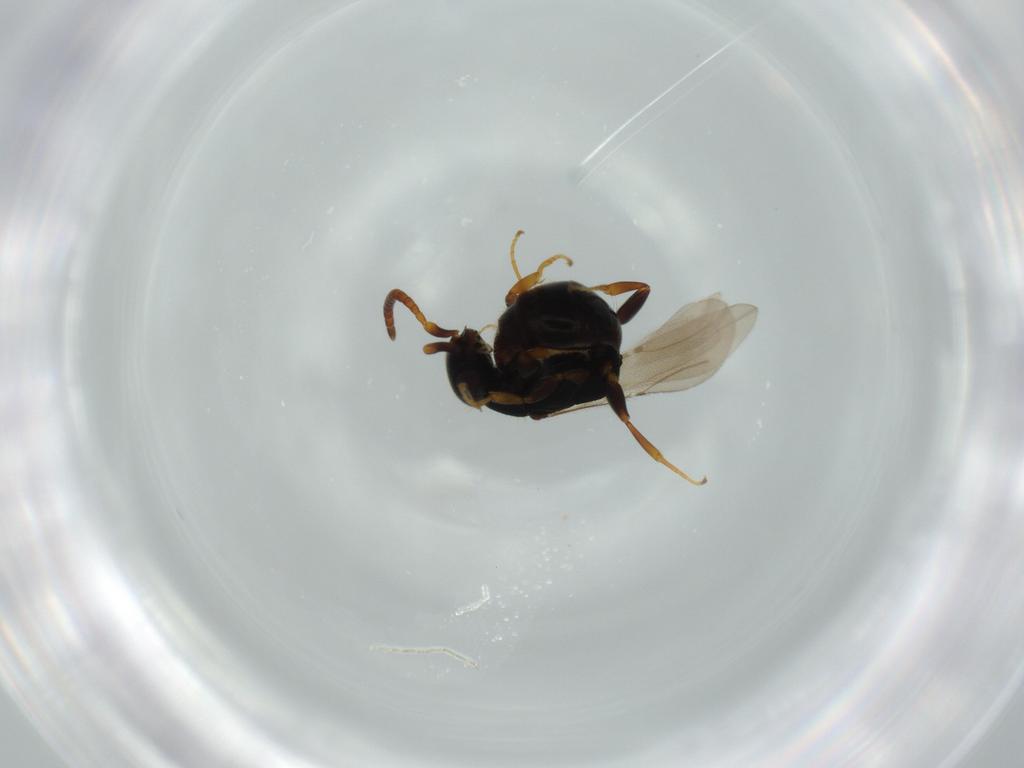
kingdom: Animalia
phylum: Arthropoda
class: Insecta
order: Hymenoptera
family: Bethylidae
